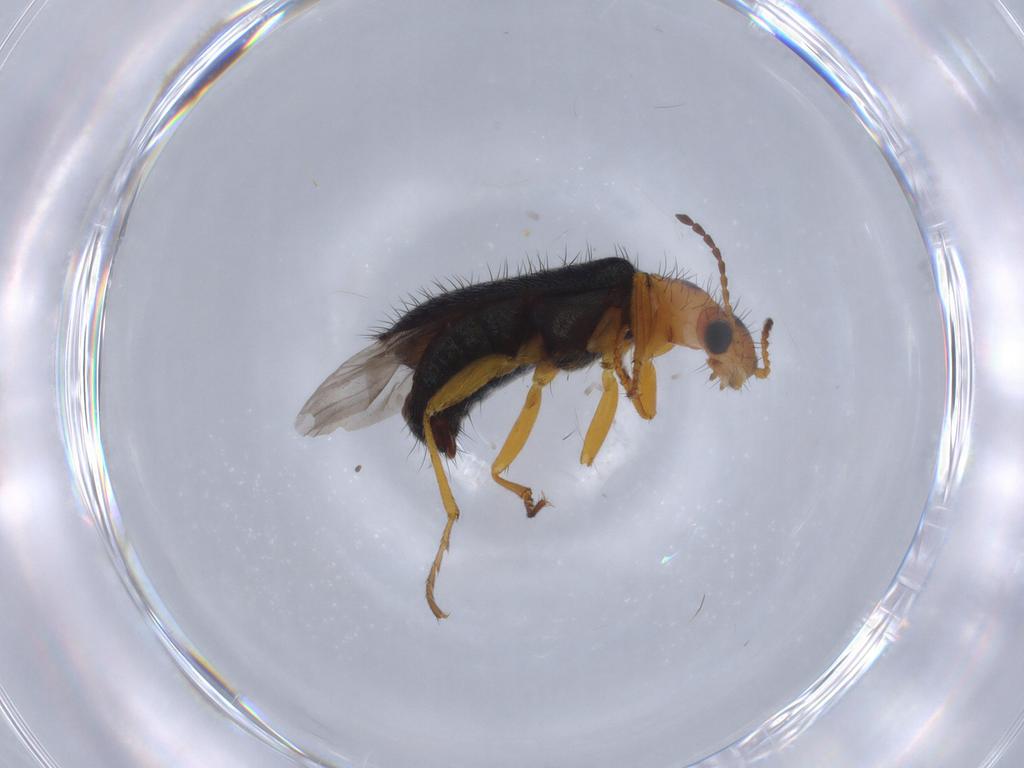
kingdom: Animalia
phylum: Arthropoda
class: Insecta
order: Coleoptera
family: Melyridae
